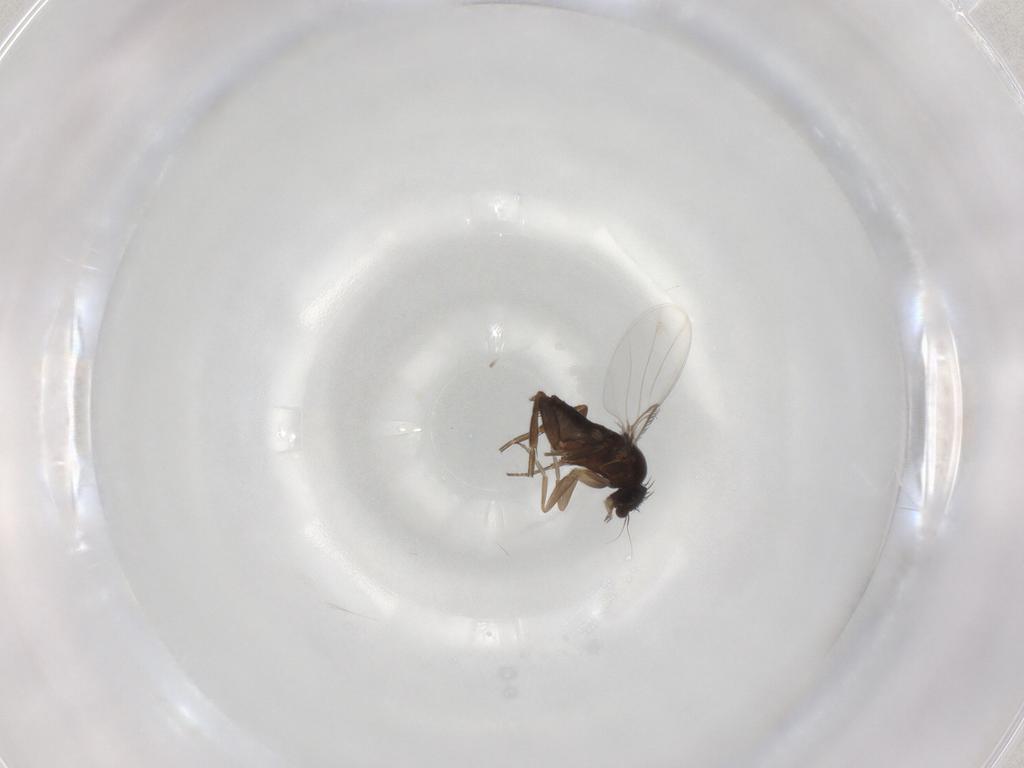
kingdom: Animalia
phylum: Arthropoda
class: Insecta
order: Diptera
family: Phoridae
